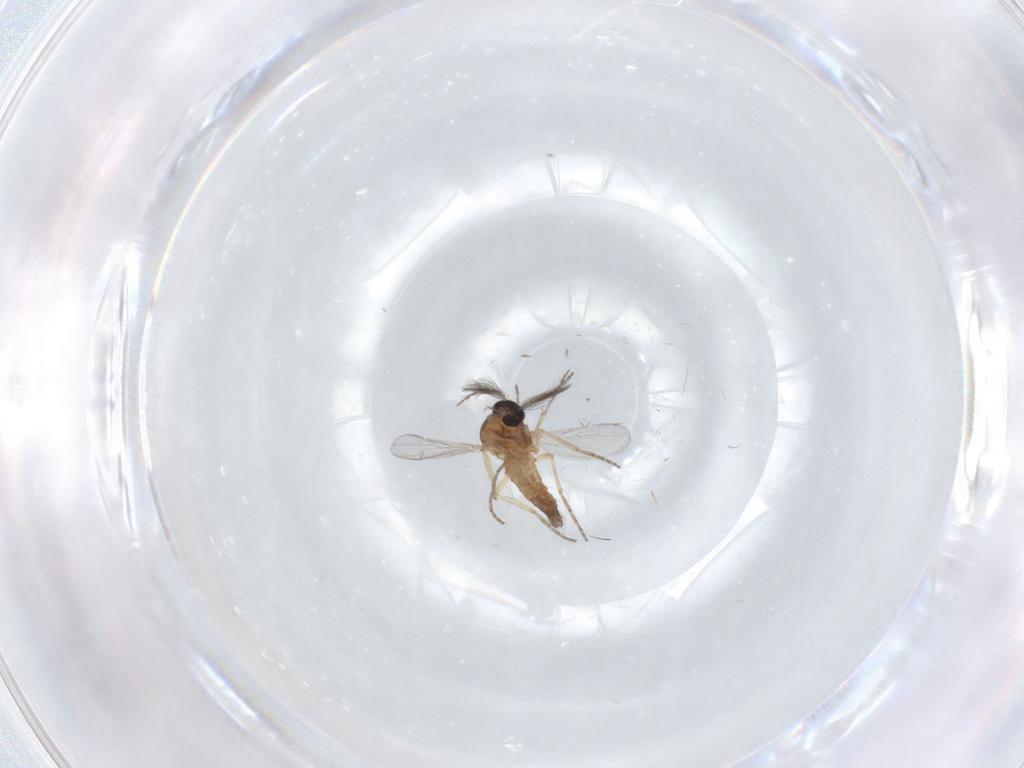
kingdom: Animalia
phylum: Arthropoda
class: Insecta
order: Diptera
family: Ceratopogonidae
